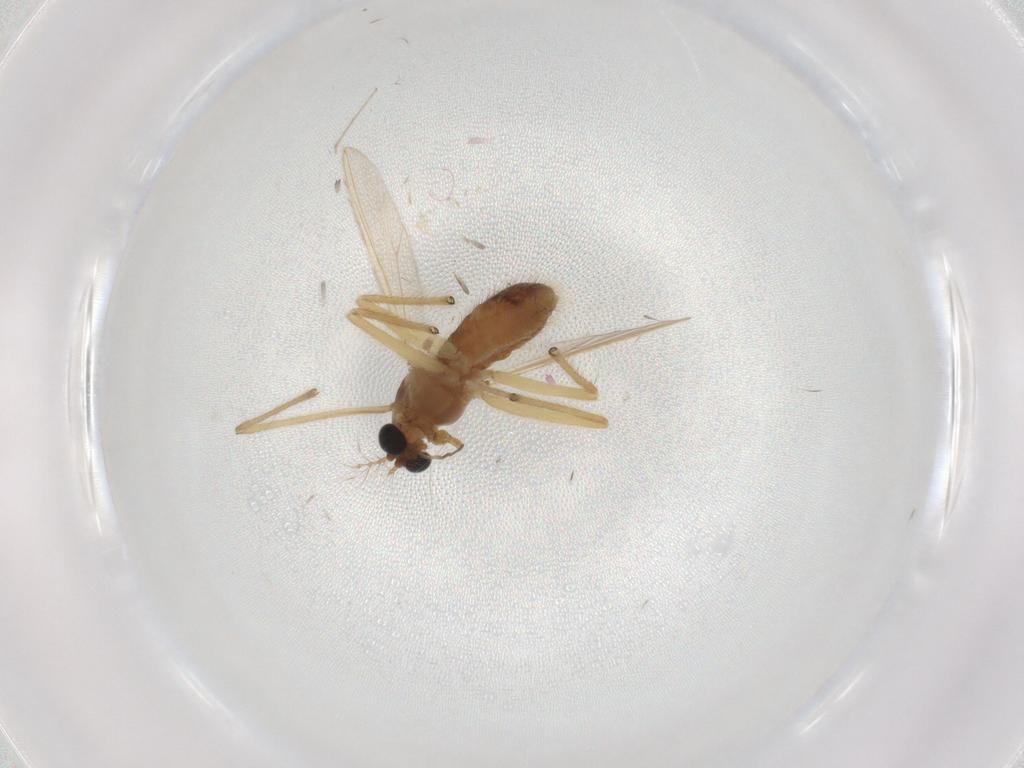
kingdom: Animalia
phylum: Arthropoda
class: Insecta
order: Diptera
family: Chironomidae
